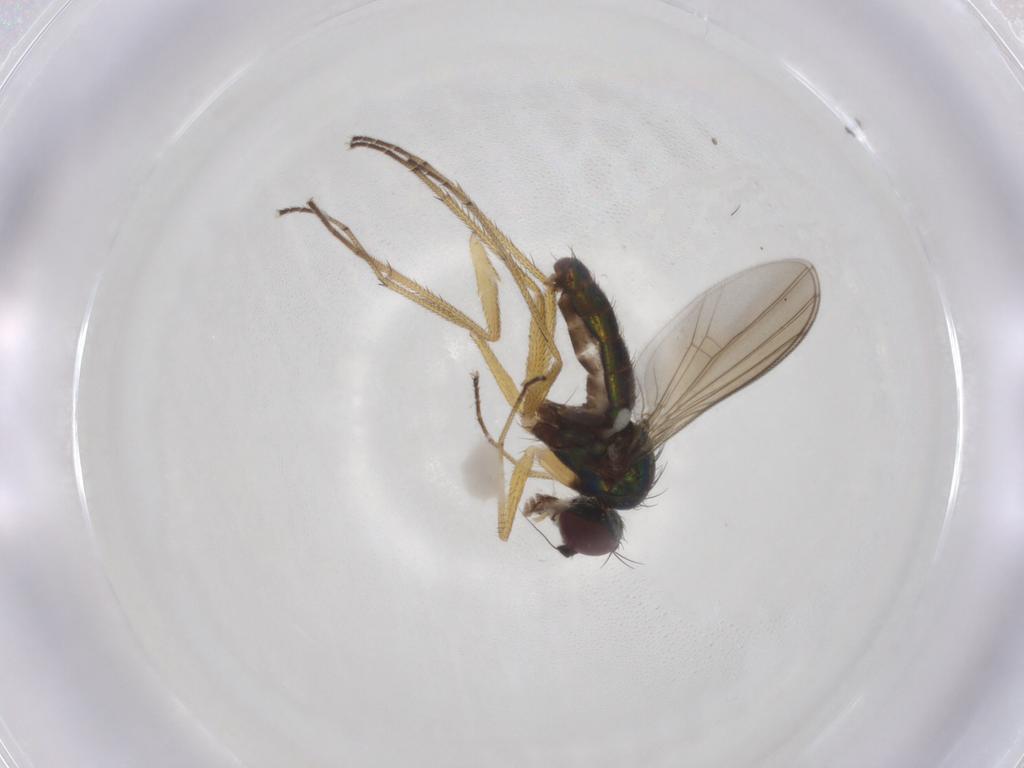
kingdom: Animalia
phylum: Arthropoda
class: Insecta
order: Diptera
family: Dolichopodidae
